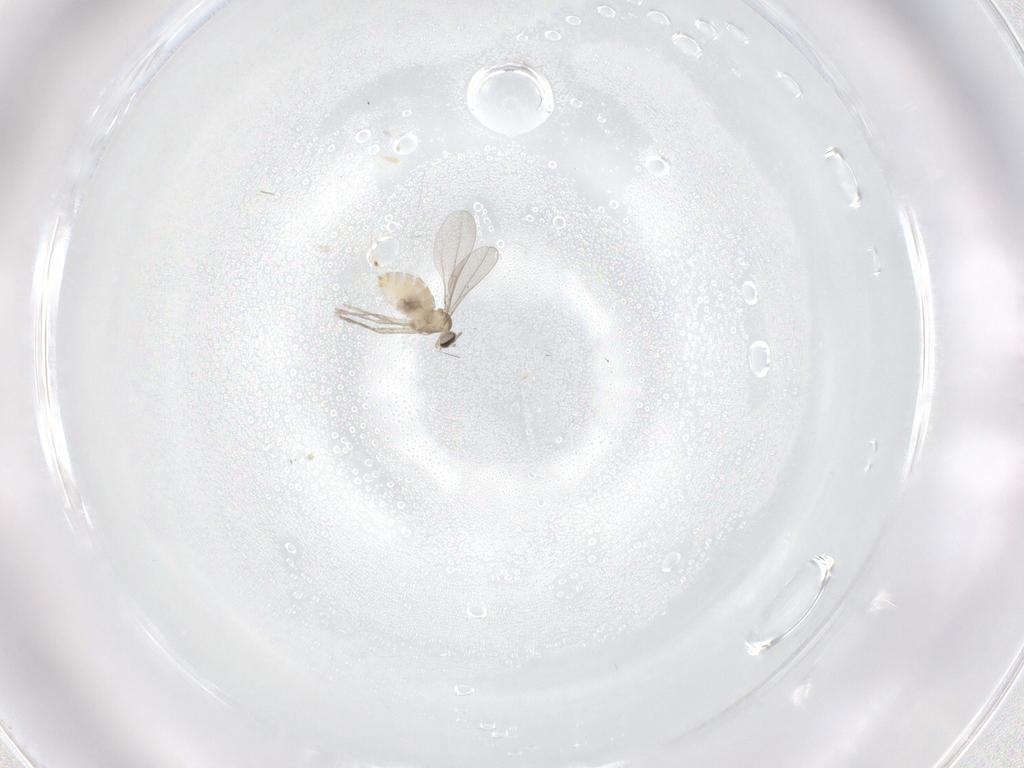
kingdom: Animalia
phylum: Arthropoda
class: Insecta
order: Diptera
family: Cecidomyiidae
